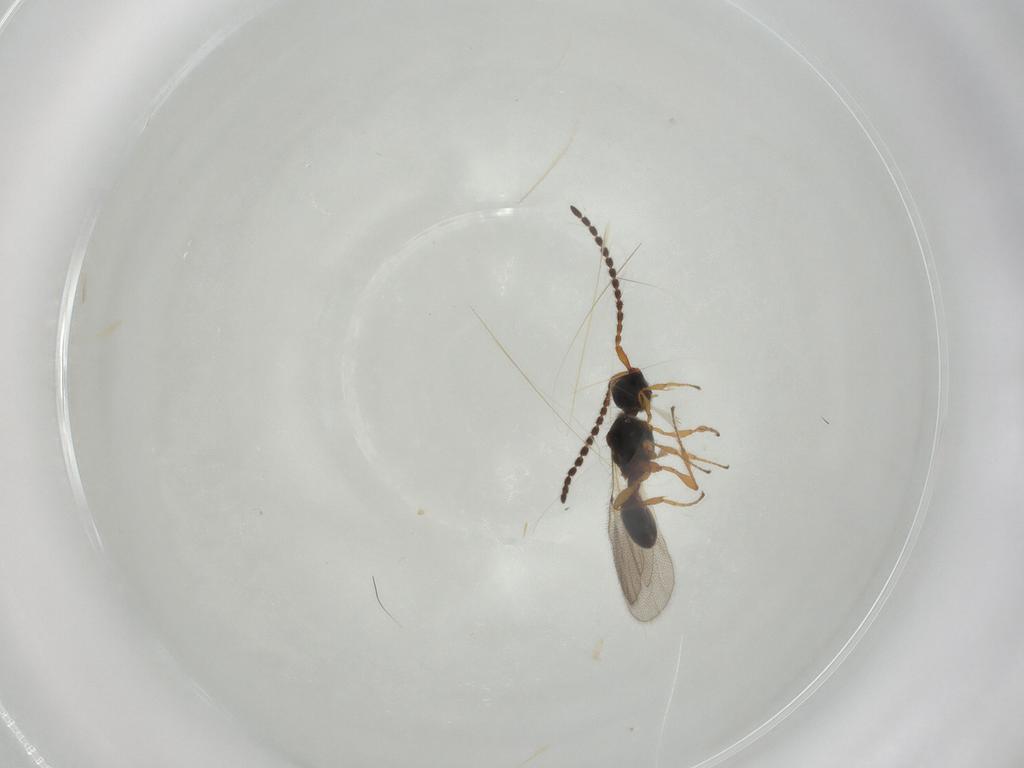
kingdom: Animalia
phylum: Arthropoda
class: Insecta
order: Hymenoptera
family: Diapriidae
